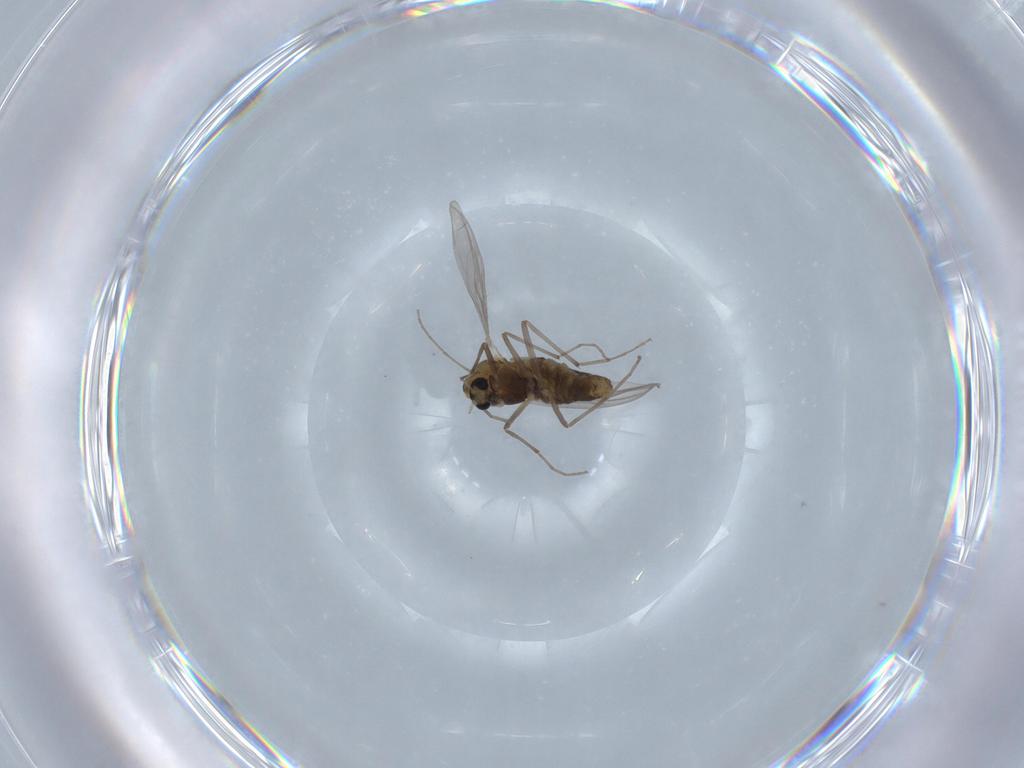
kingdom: Animalia
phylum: Arthropoda
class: Insecta
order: Diptera
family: Chironomidae
